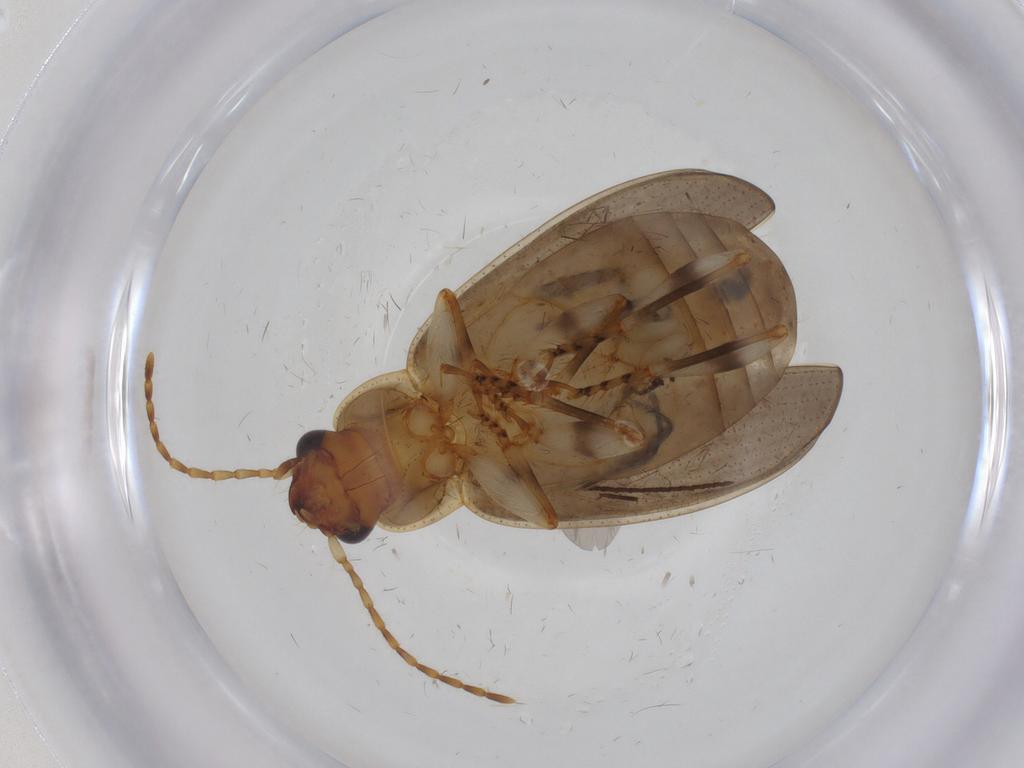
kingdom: Animalia
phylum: Arthropoda
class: Insecta
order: Coleoptera
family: Carabidae
